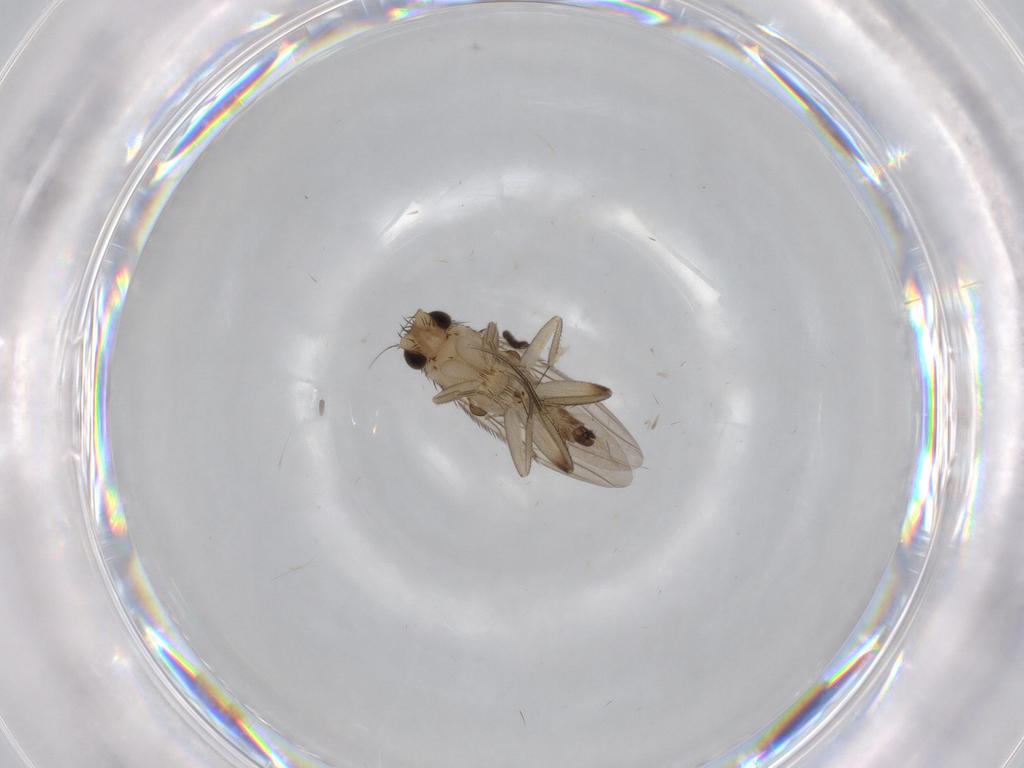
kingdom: Animalia
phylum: Arthropoda
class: Insecta
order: Diptera
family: Phoridae
